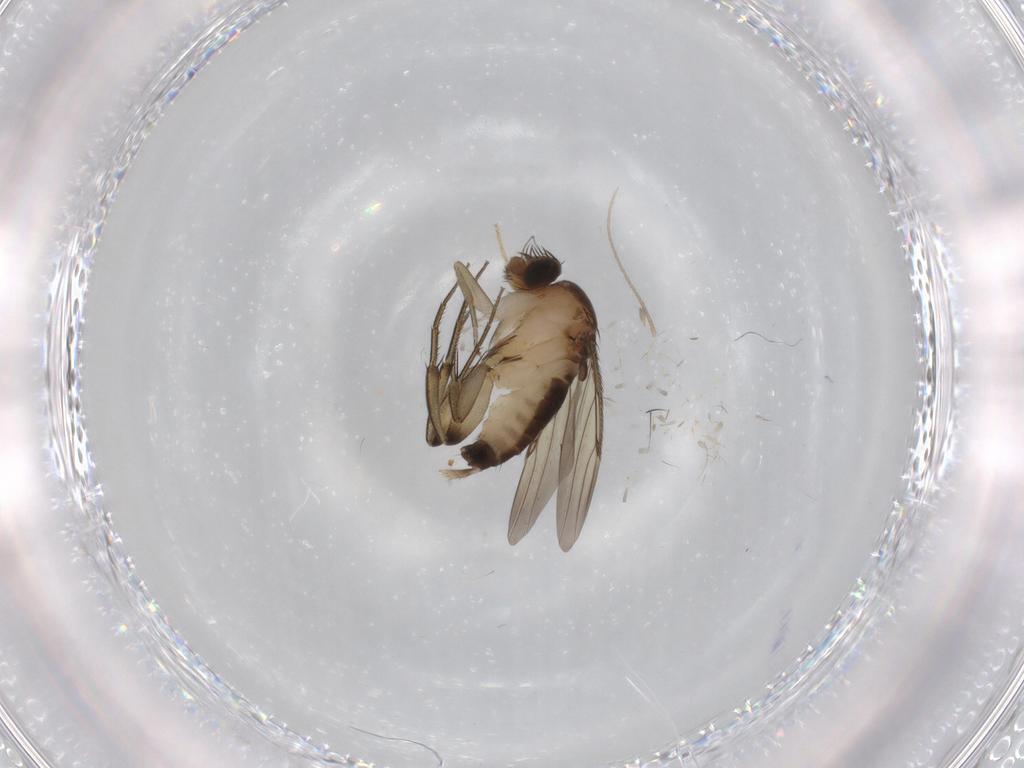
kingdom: Animalia
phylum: Arthropoda
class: Insecta
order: Diptera
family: Phoridae
